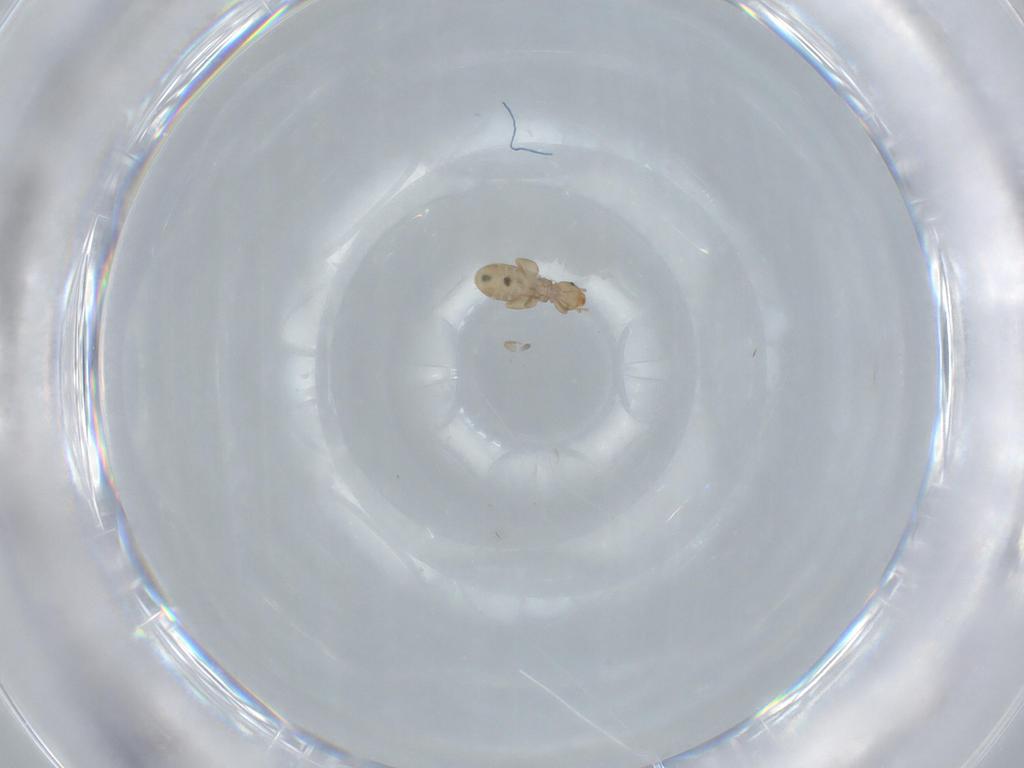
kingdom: Animalia
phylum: Arthropoda
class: Insecta
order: Psocodea
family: Liposcelididae
